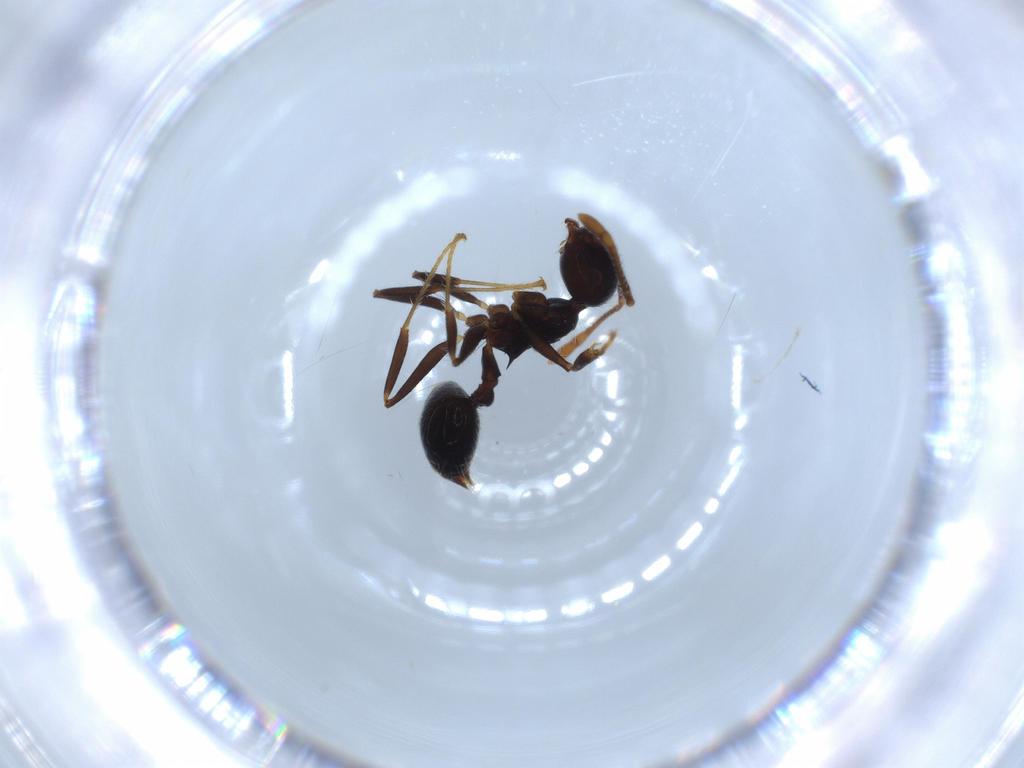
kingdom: Animalia
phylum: Arthropoda
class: Insecta
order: Hymenoptera
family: Formicidae
